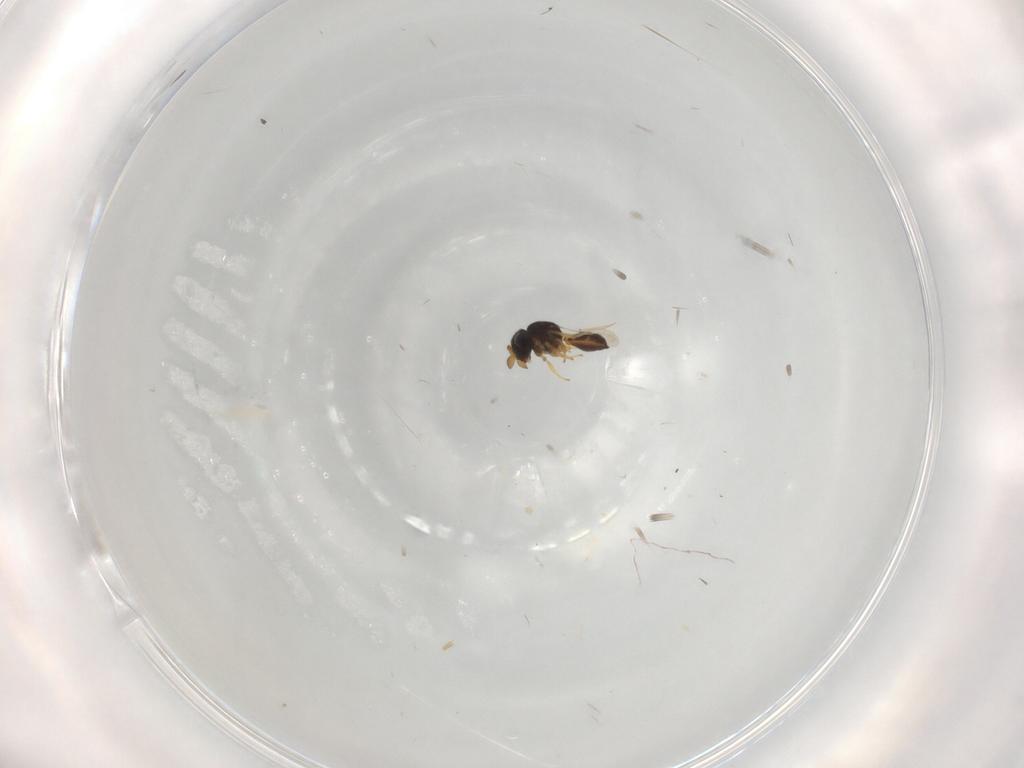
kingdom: Animalia
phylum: Arthropoda
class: Insecta
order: Hymenoptera
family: Scelionidae
